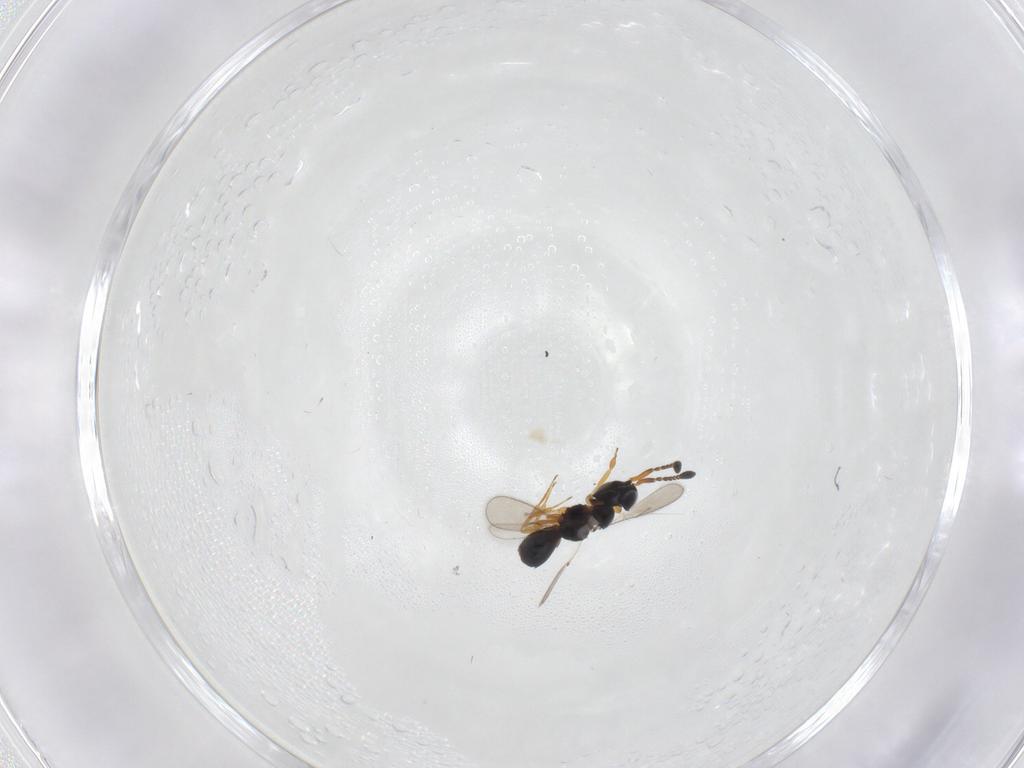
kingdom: Animalia
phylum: Arthropoda
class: Insecta
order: Hymenoptera
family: Scelionidae
